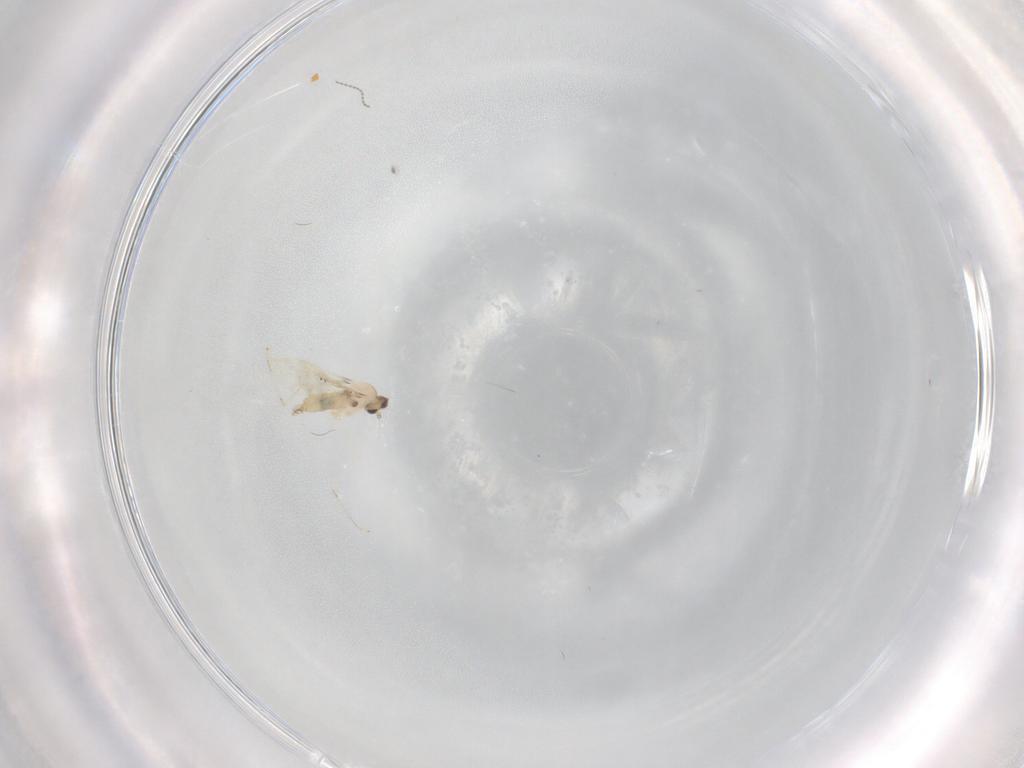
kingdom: Animalia
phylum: Arthropoda
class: Insecta
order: Diptera
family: Cecidomyiidae
